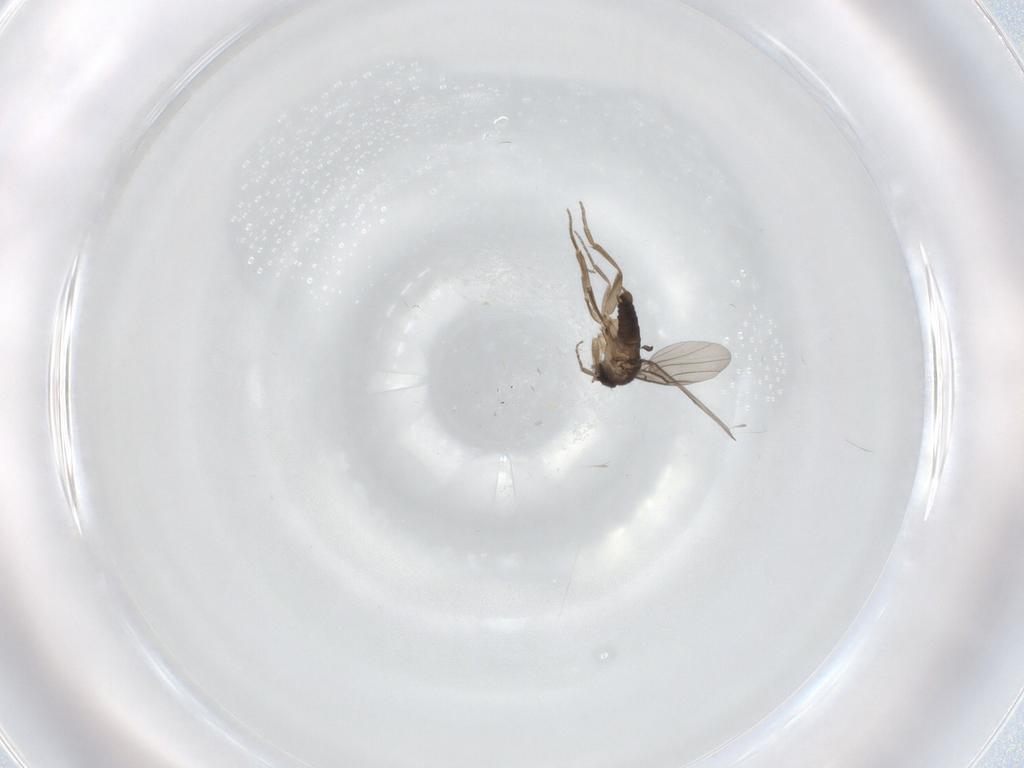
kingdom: Animalia
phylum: Arthropoda
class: Insecta
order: Diptera
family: Phoridae
